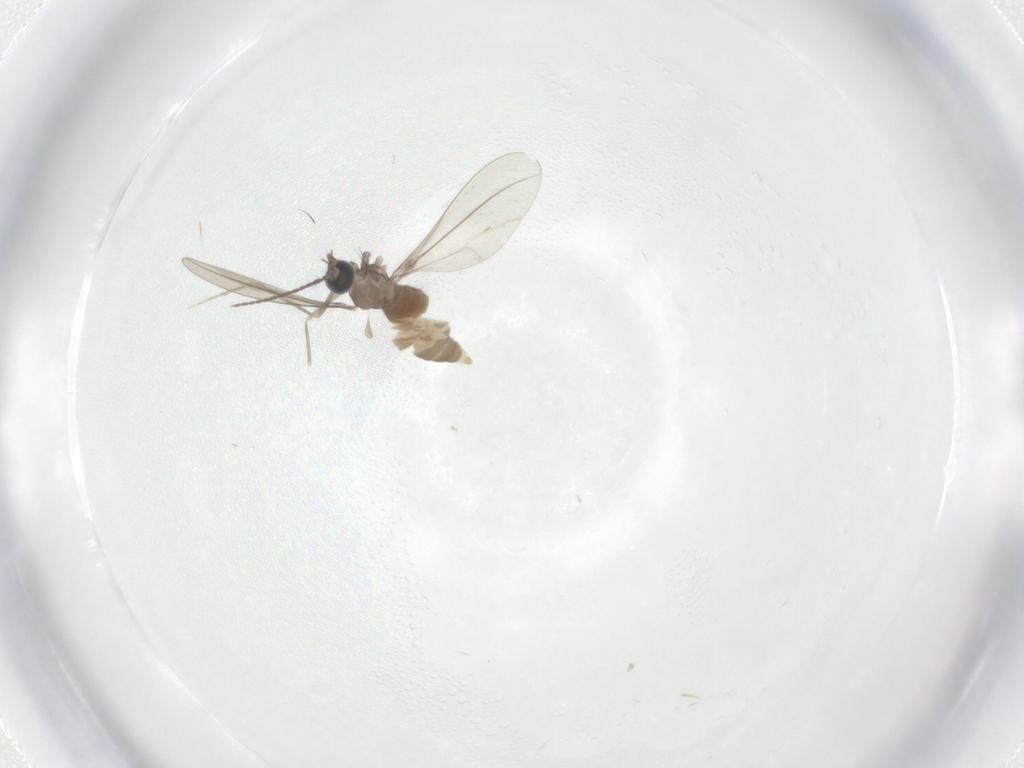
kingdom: Animalia
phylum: Arthropoda
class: Insecta
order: Diptera
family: Cecidomyiidae
